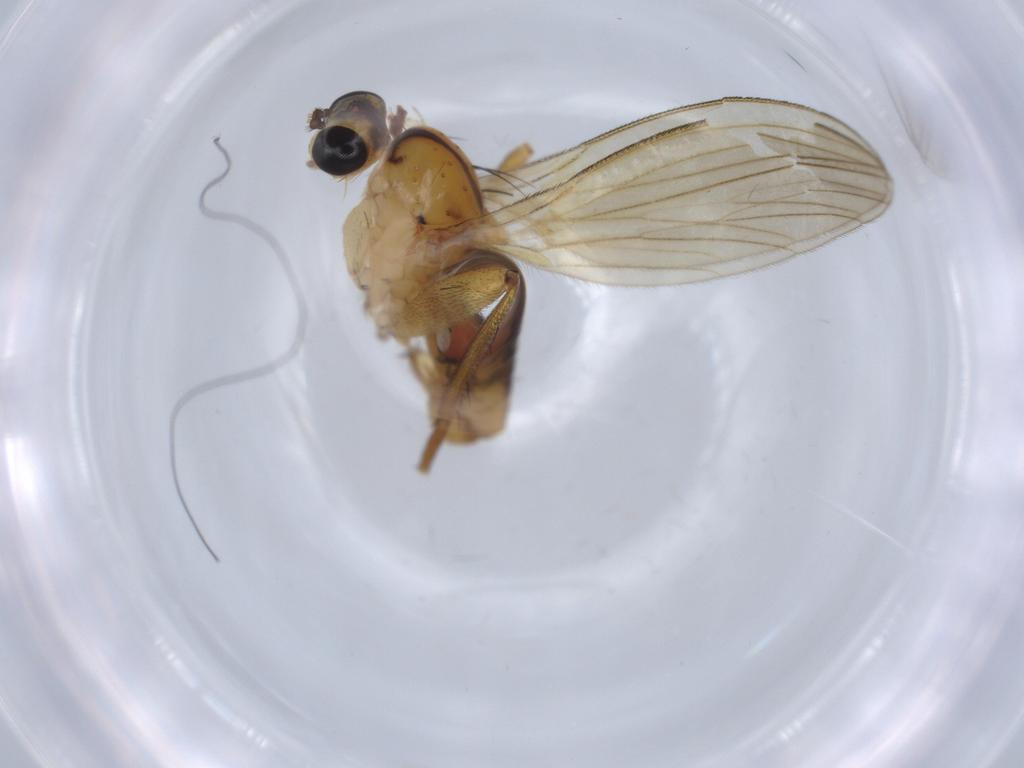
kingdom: Animalia
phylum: Arthropoda
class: Insecta
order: Diptera
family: Lonchopteridae
